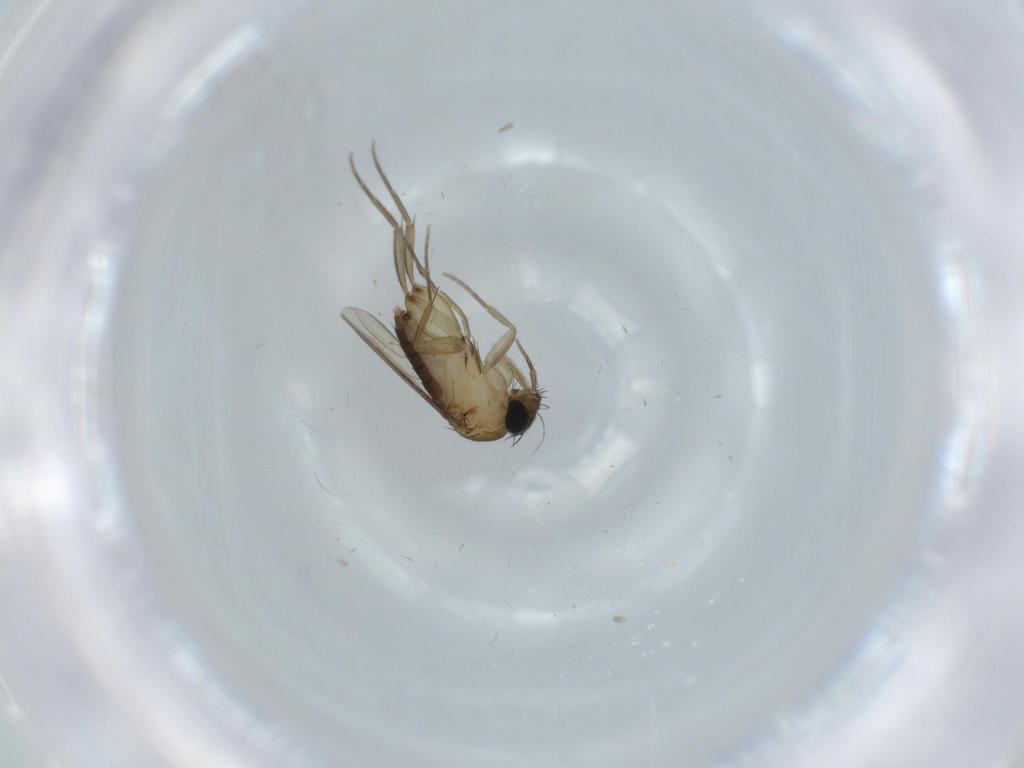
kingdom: Animalia
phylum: Arthropoda
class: Insecta
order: Diptera
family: Phoridae
